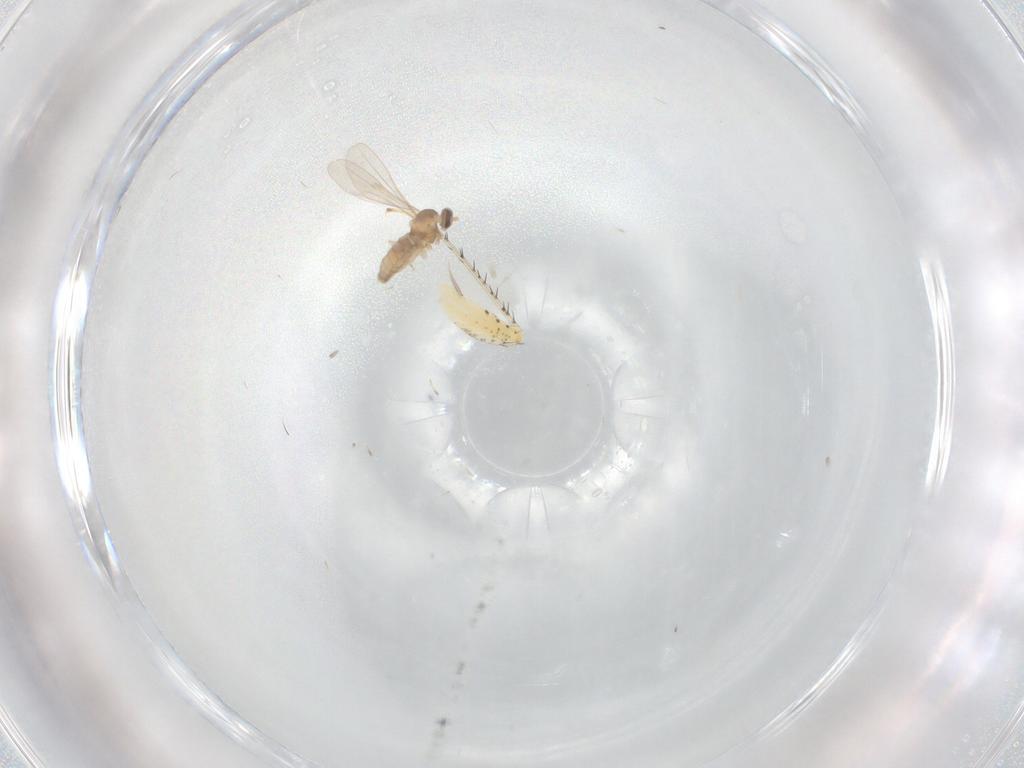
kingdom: Animalia
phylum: Arthropoda
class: Insecta
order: Diptera
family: Cecidomyiidae
